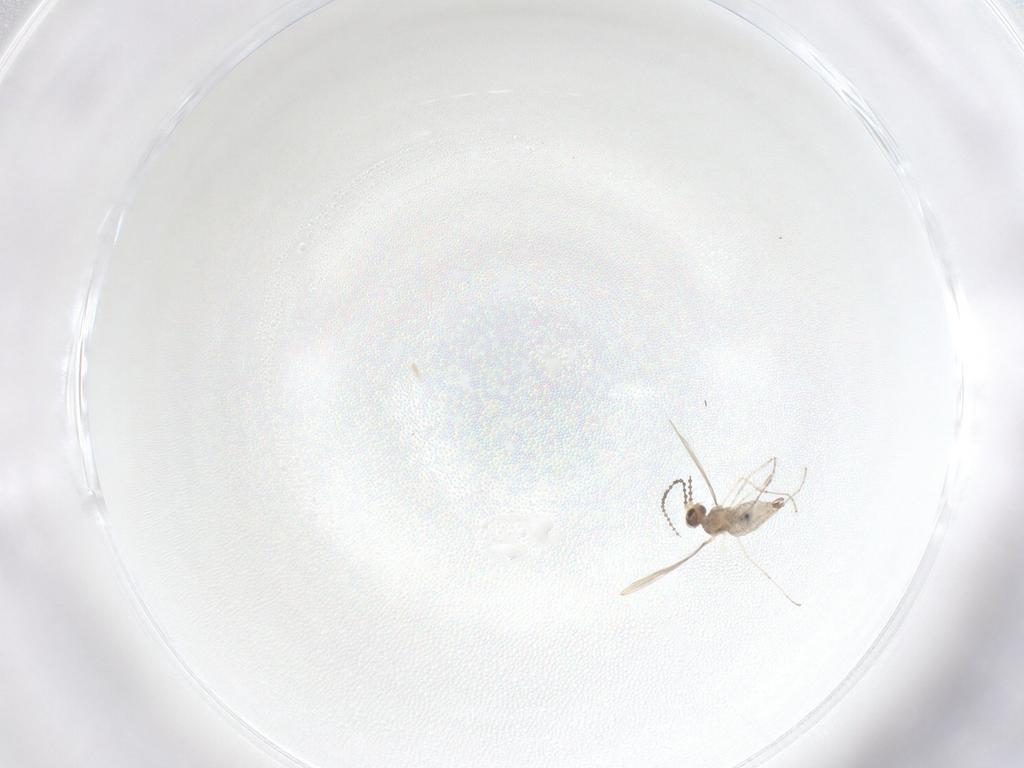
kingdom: Animalia
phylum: Arthropoda
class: Insecta
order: Diptera
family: Cecidomyiidae
